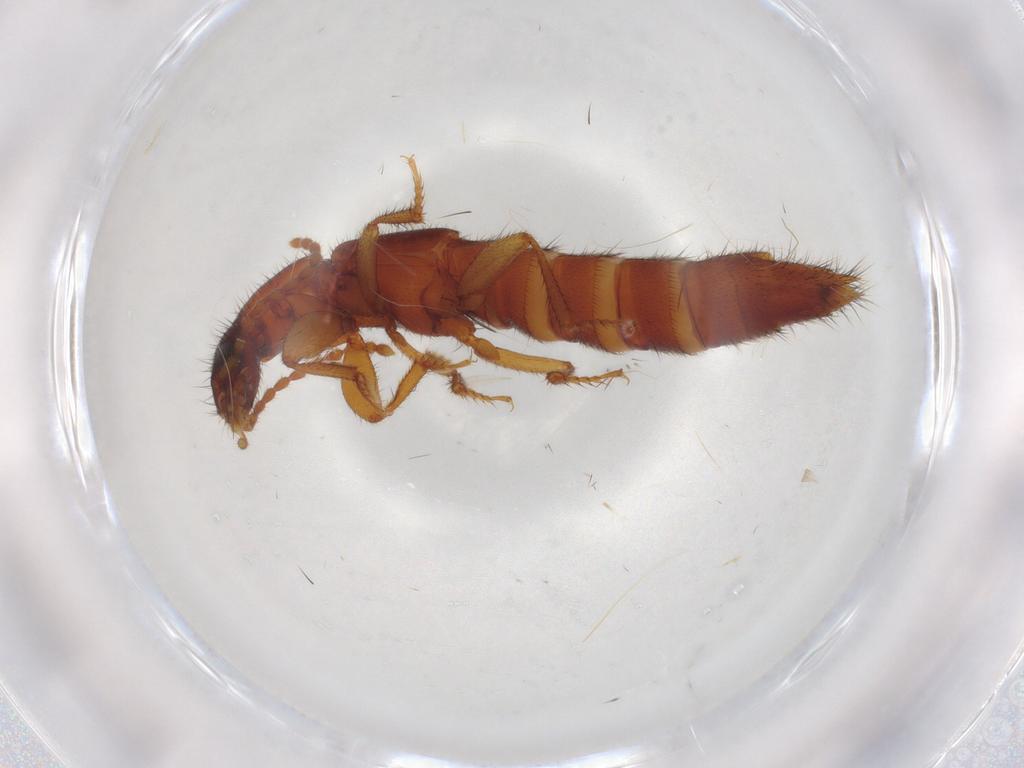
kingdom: Animalia
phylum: Arthropoda
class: Insecta
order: Coleoptera
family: Staphylinidae
